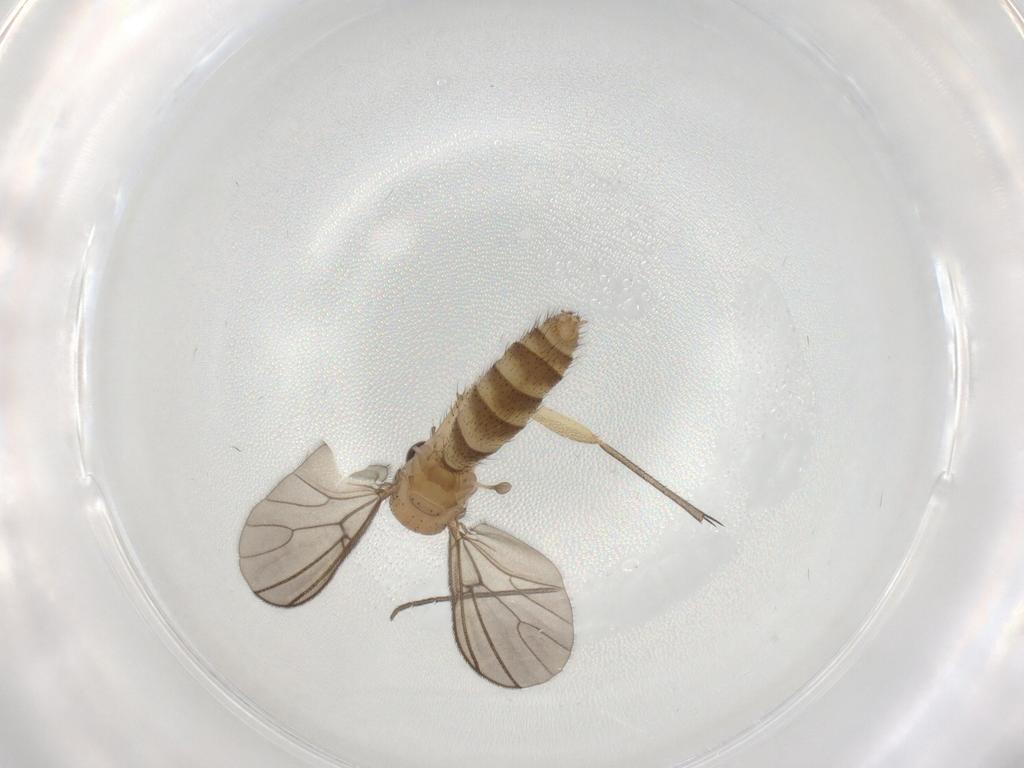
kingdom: Animalia
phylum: Arthropoda
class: Insecta
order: Diptera
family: Mycetophilidae
